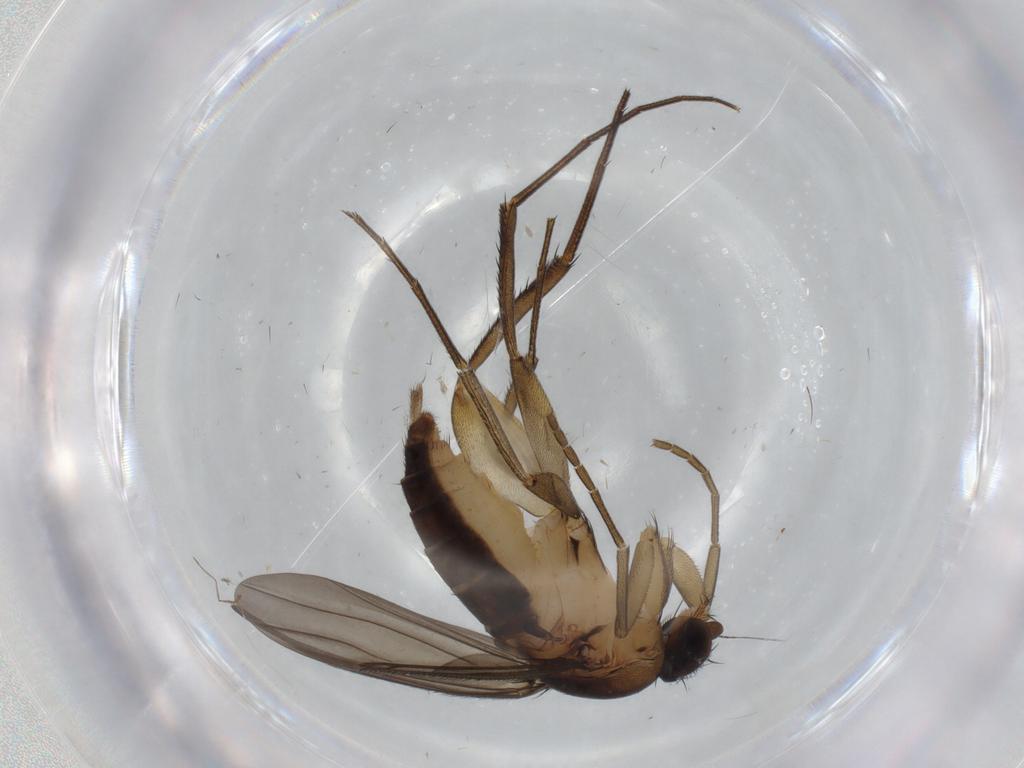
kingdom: Animalia
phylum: Arthropoda
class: Insecta
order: Diptera
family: Phoridae
